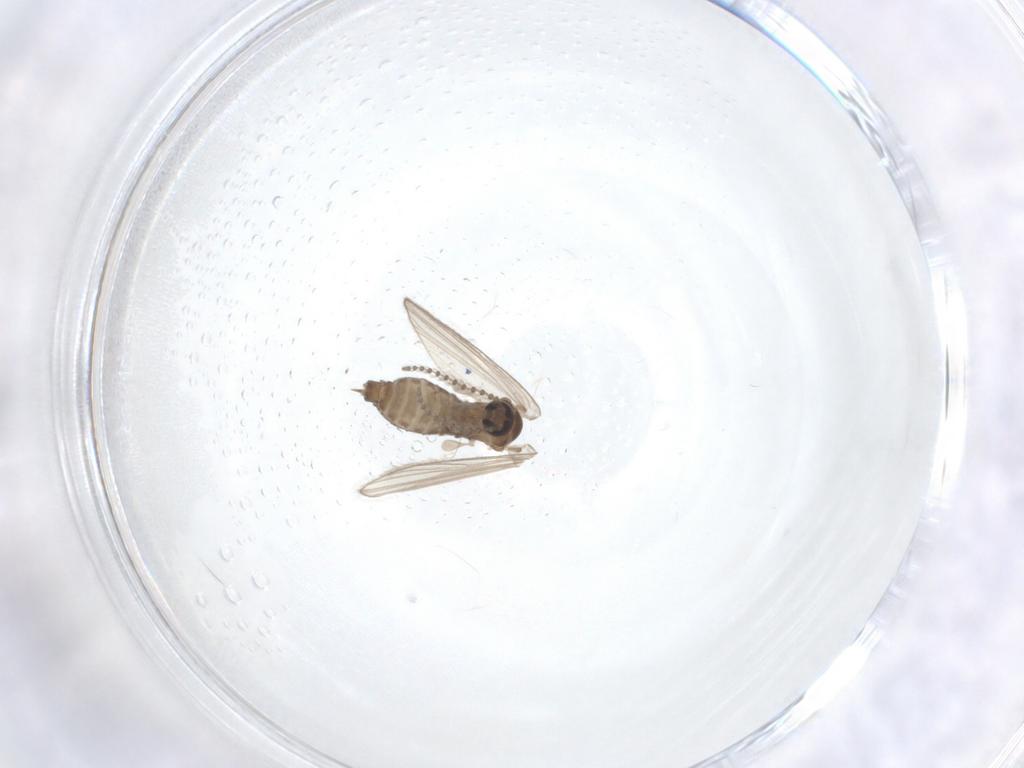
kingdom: Animalia
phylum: Arthropoda
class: Insecta
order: Diptera
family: Psychodidae
